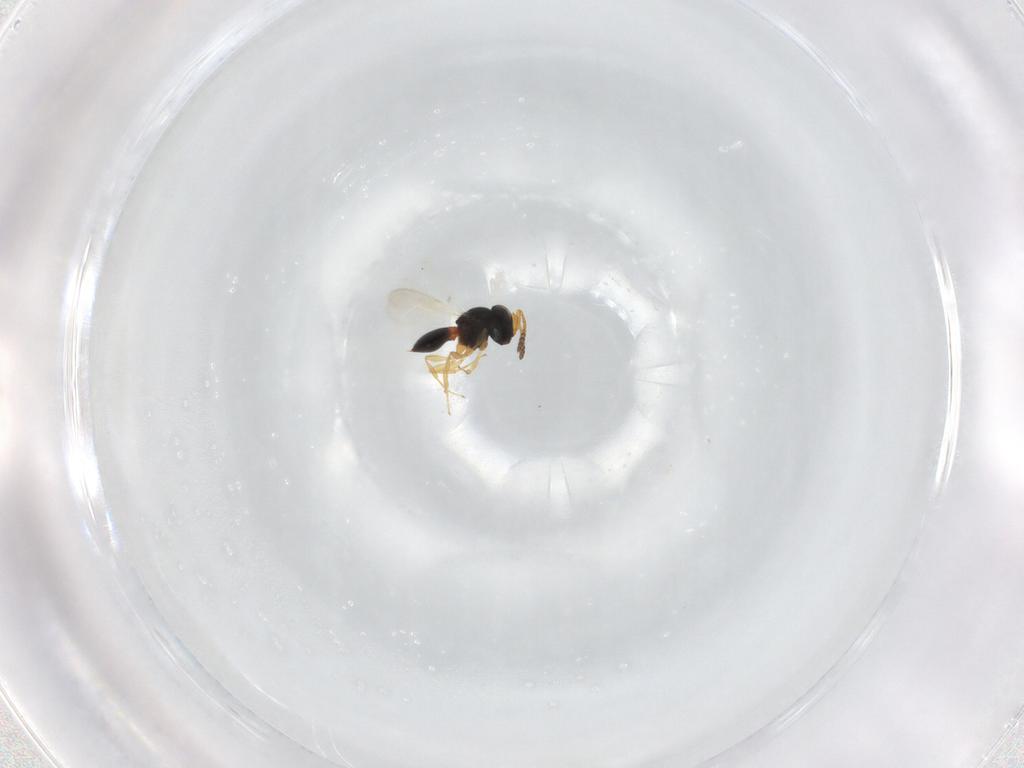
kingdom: Animalia
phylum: Arthropoda
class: Insecta
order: Hymenoptera
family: Scelionidae
